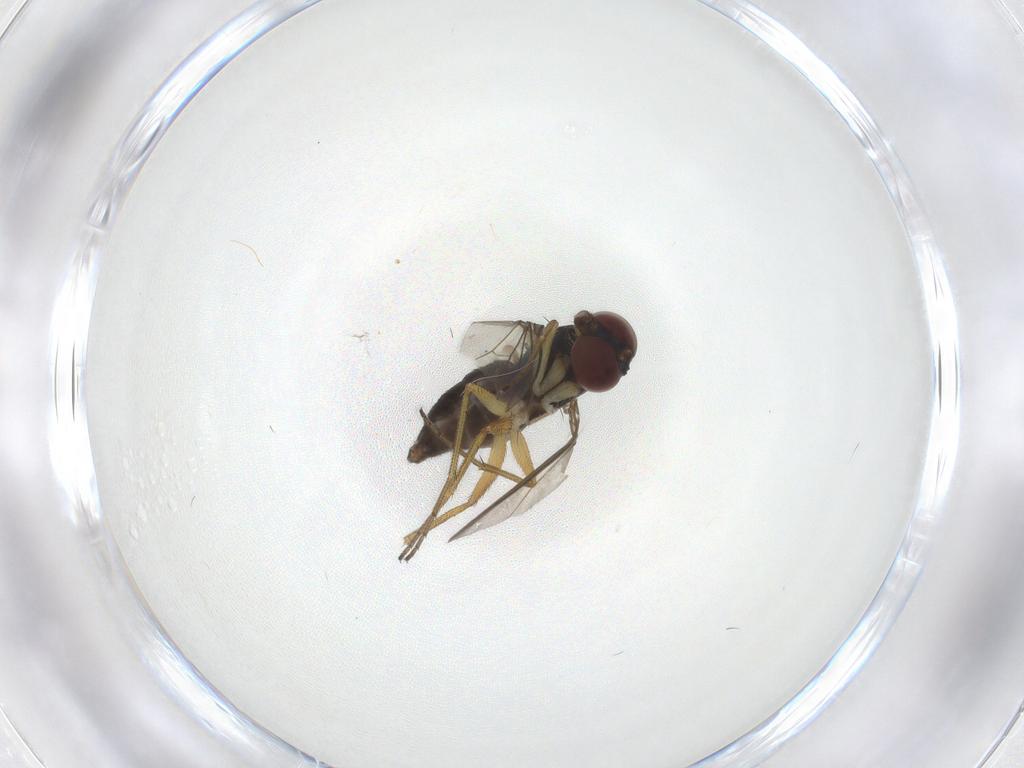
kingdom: Animalia
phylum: Arthropoda
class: Insecta
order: Diptera
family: Dolichopodidae
